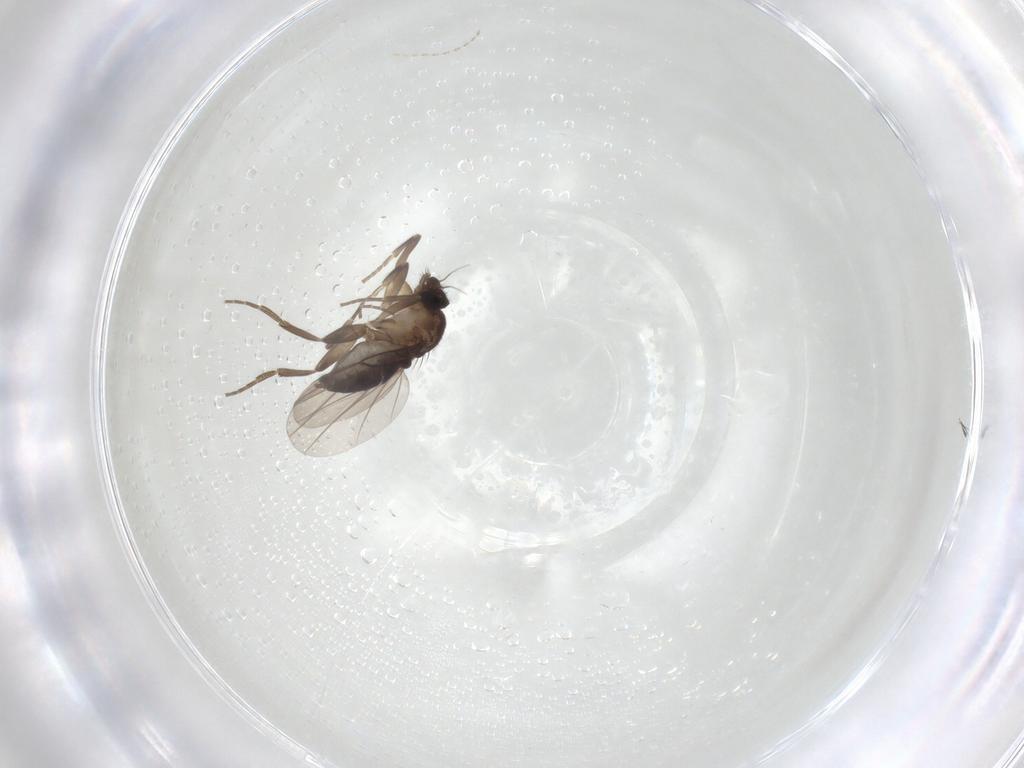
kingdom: Animalia
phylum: Arthropoda
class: Insecta
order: Diptera
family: Phoridae
